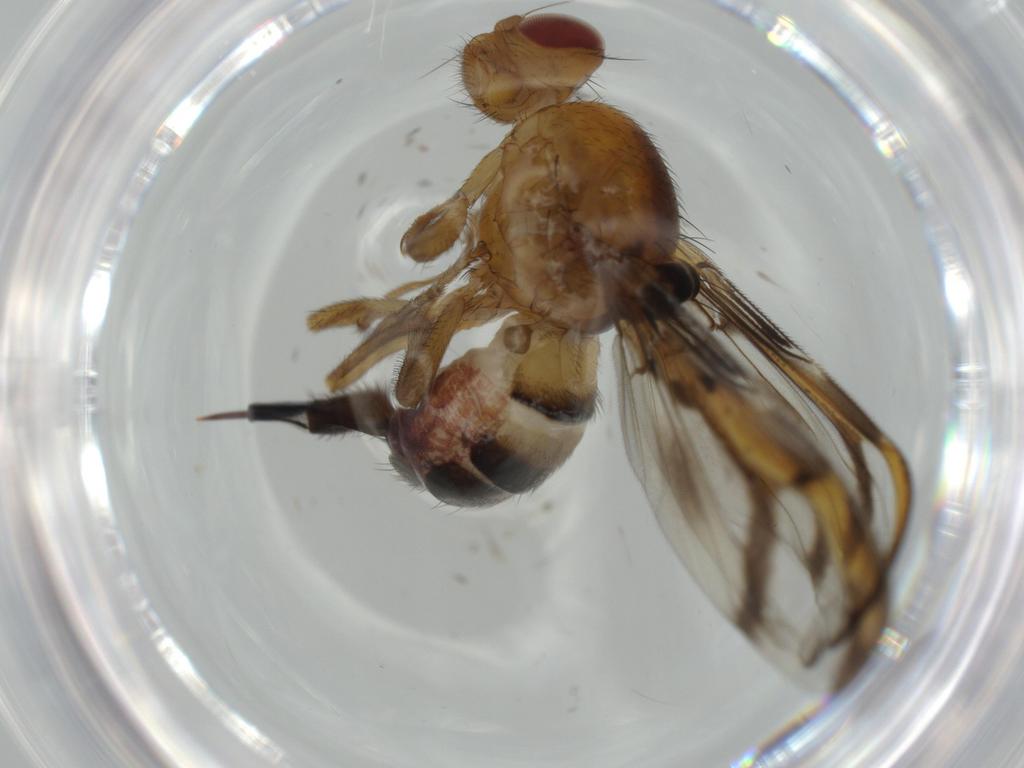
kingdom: Animalia
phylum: Arthropoda
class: Insecta
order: Diptera
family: Ulidiidae
